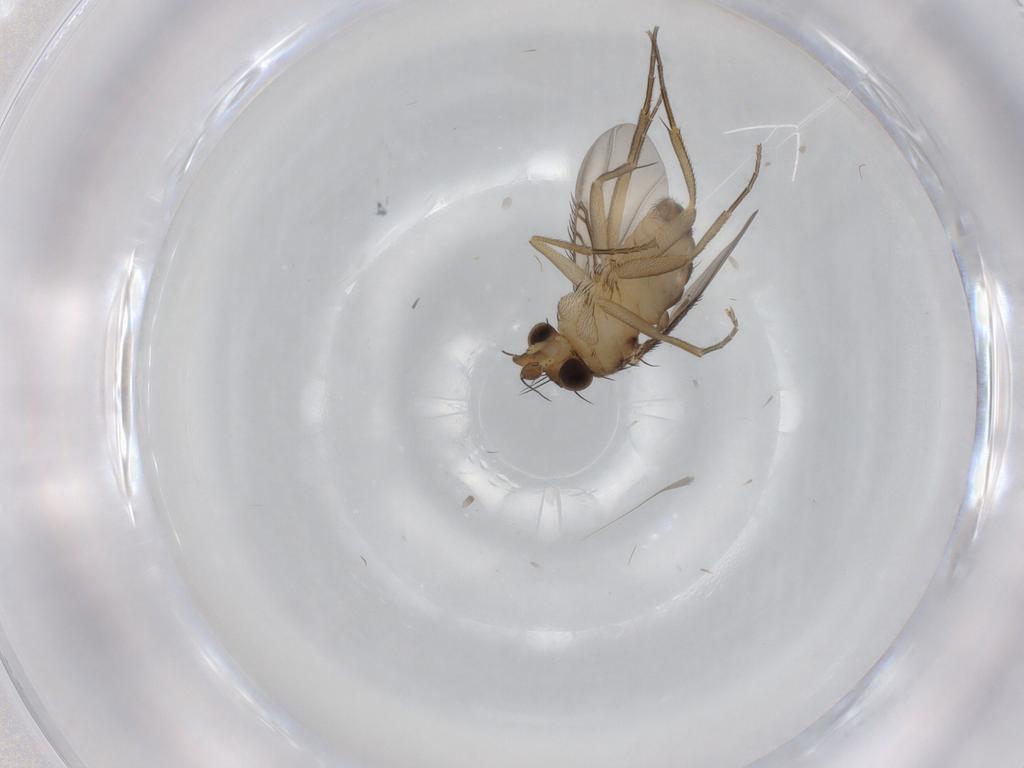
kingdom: Animalia
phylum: Arthropoda
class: Insecta
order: Diptera
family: Phoridae
